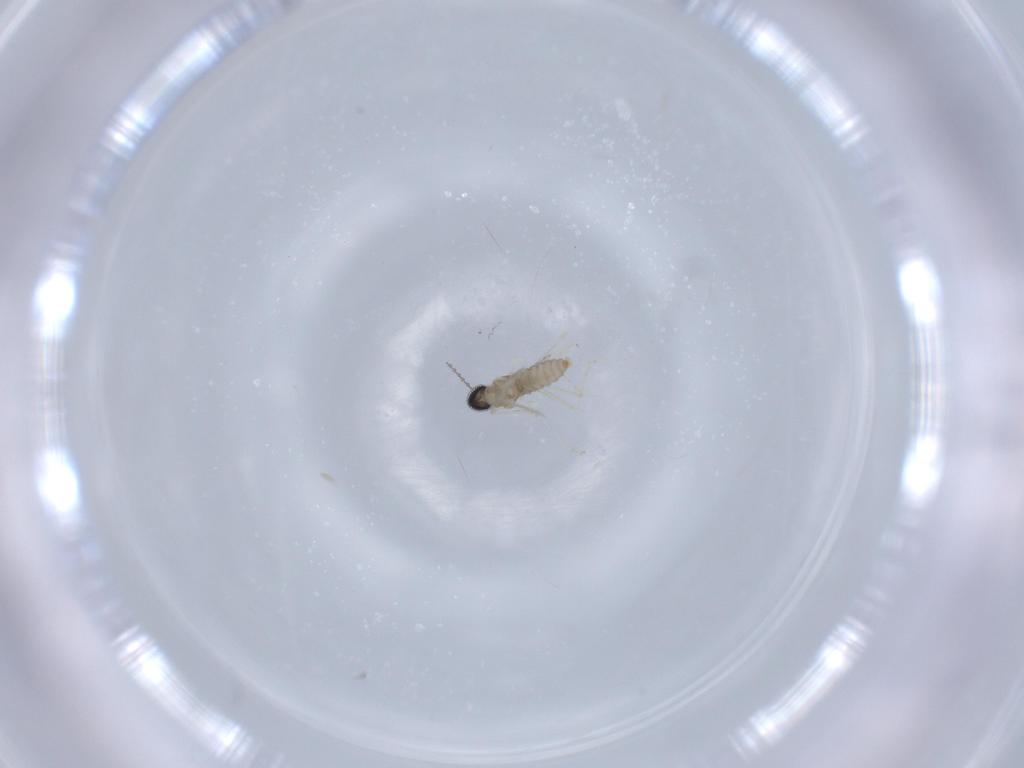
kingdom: Animalia
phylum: Arthropoda
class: Insecta
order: Diptera
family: Cecidomyiidae
